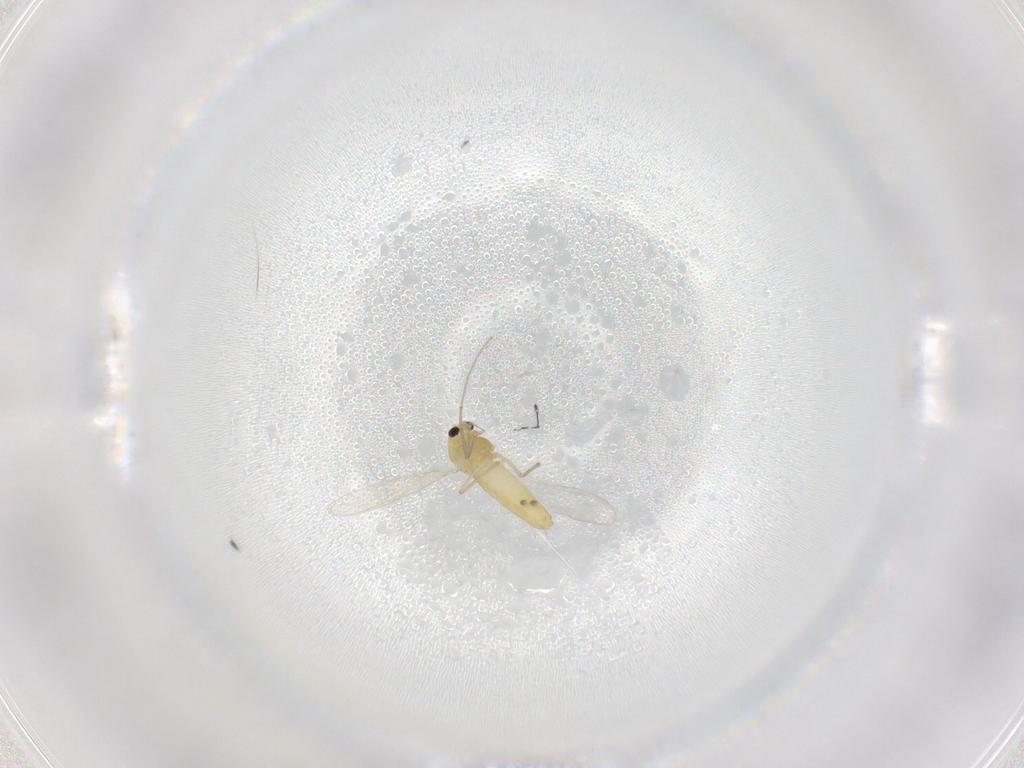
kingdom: Animalia
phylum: Arthropoda
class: Insecta
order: Diptera
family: Chironomidae
